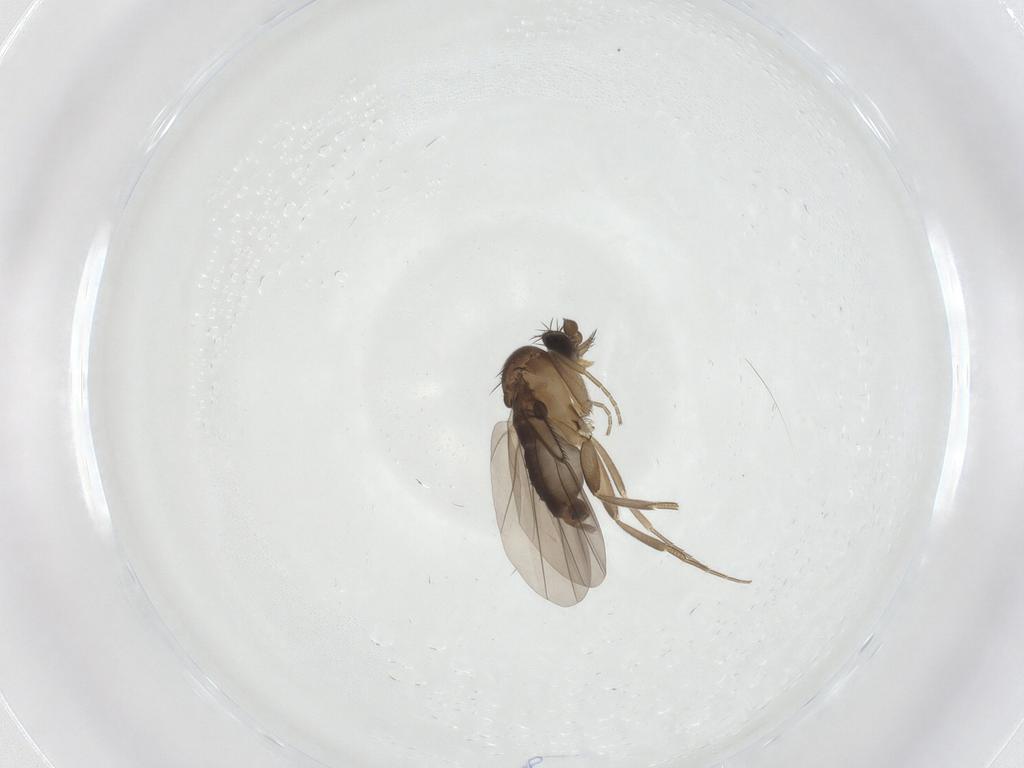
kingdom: Animalia
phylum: Arthropoda
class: Insecta
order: Diptera
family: Phoridae
